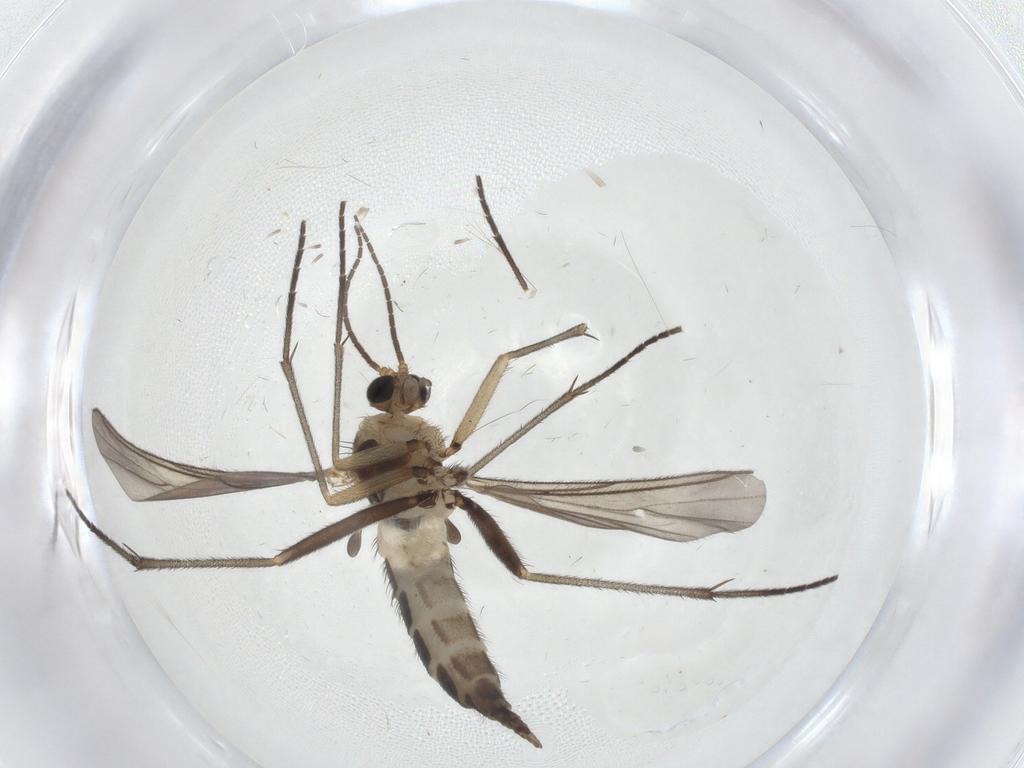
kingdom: Animalia
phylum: Arthropoda
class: Insecta
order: Diptera
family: Sciaridae
